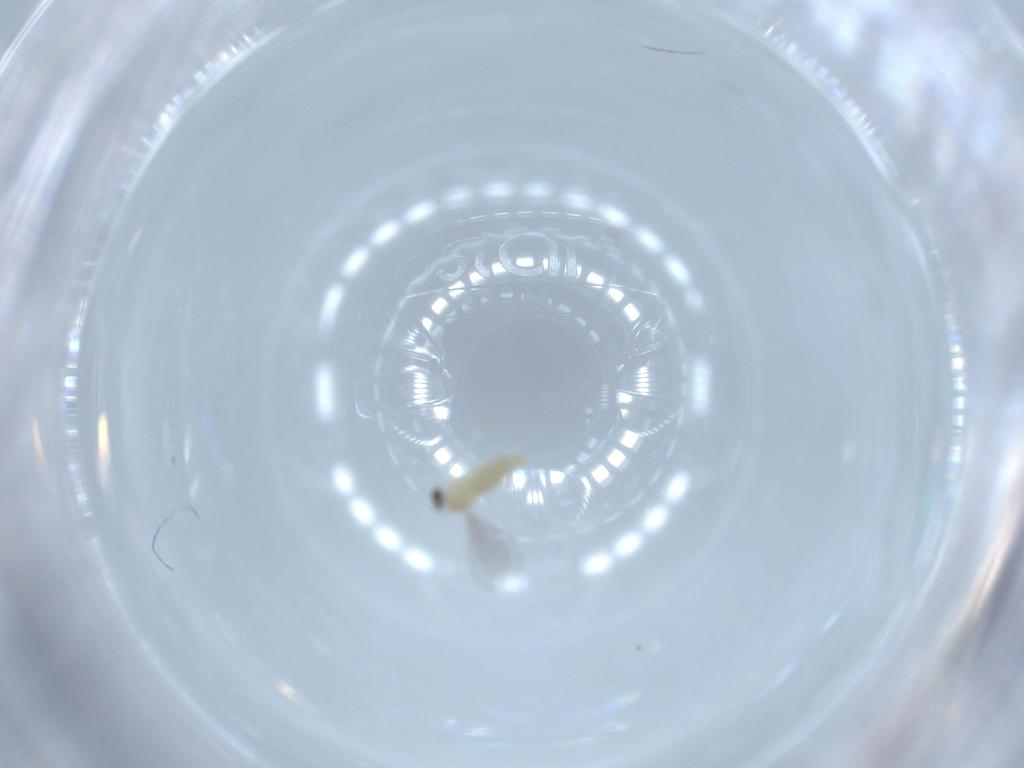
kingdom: Animalia
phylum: Arthropoda
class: Insecta
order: Diptera
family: Cecidomyiidae
